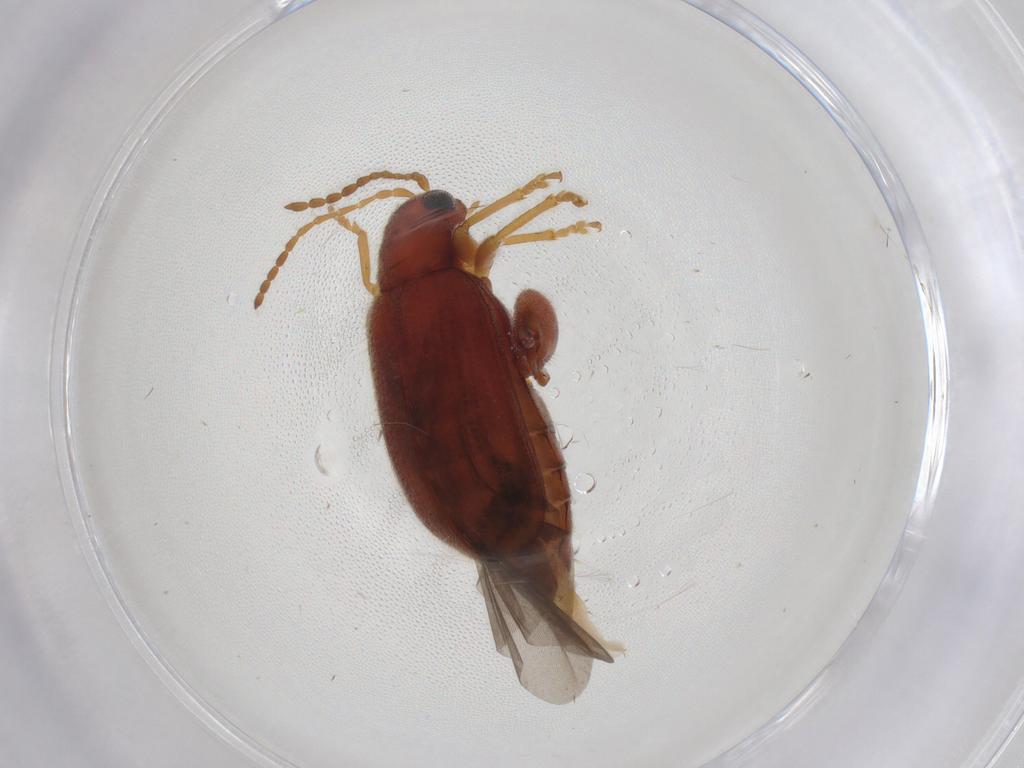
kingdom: Animalia
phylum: Arthropoda
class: Insecta
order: Coleoptera
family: Chrysomelidae
